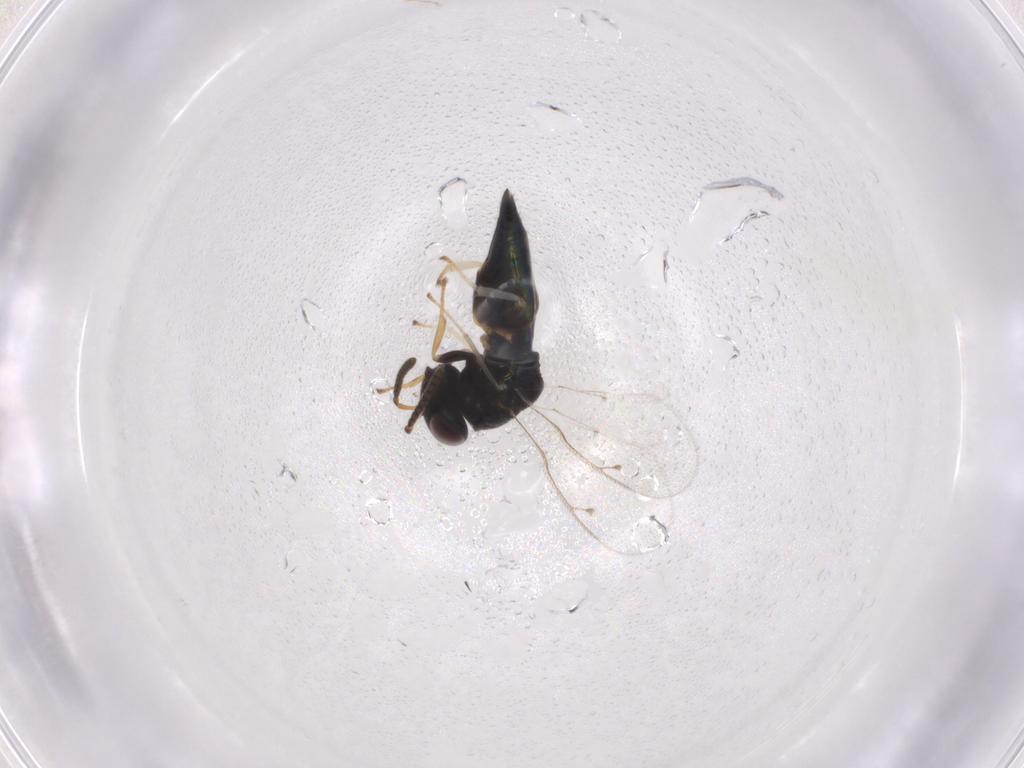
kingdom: Animalia
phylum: Arthropoda
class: Insecta
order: Hymenoptera
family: Pteromalidae
